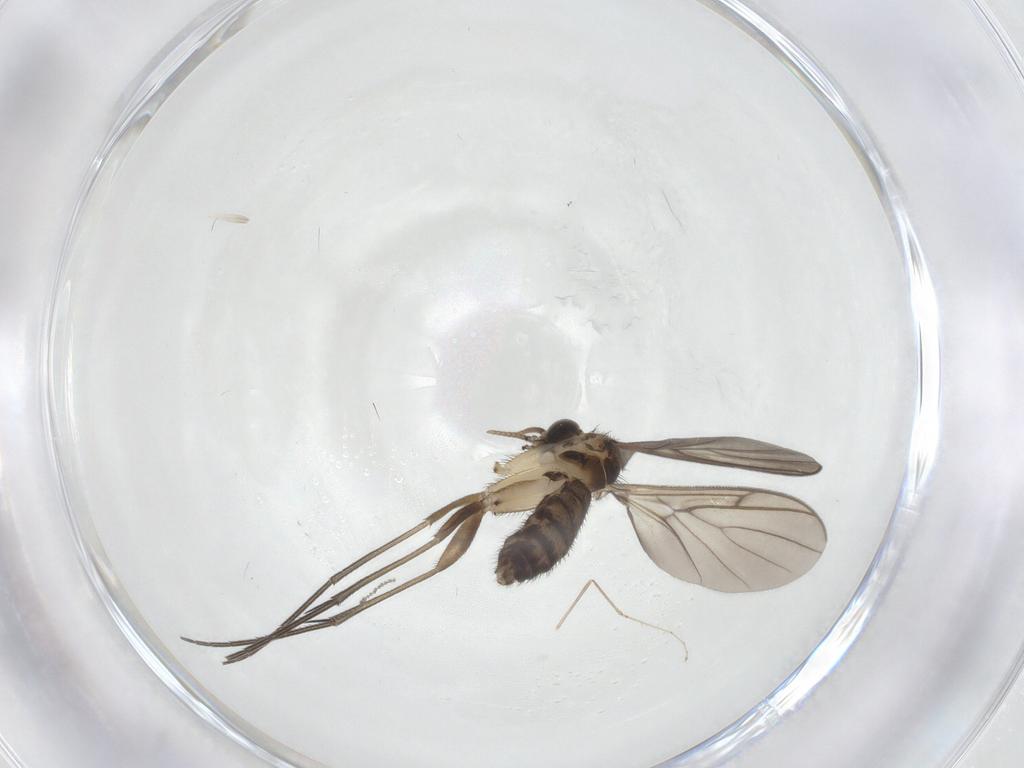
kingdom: Animalia
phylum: Arthropoda
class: Insecta
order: Diptera
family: Keroplatidae
